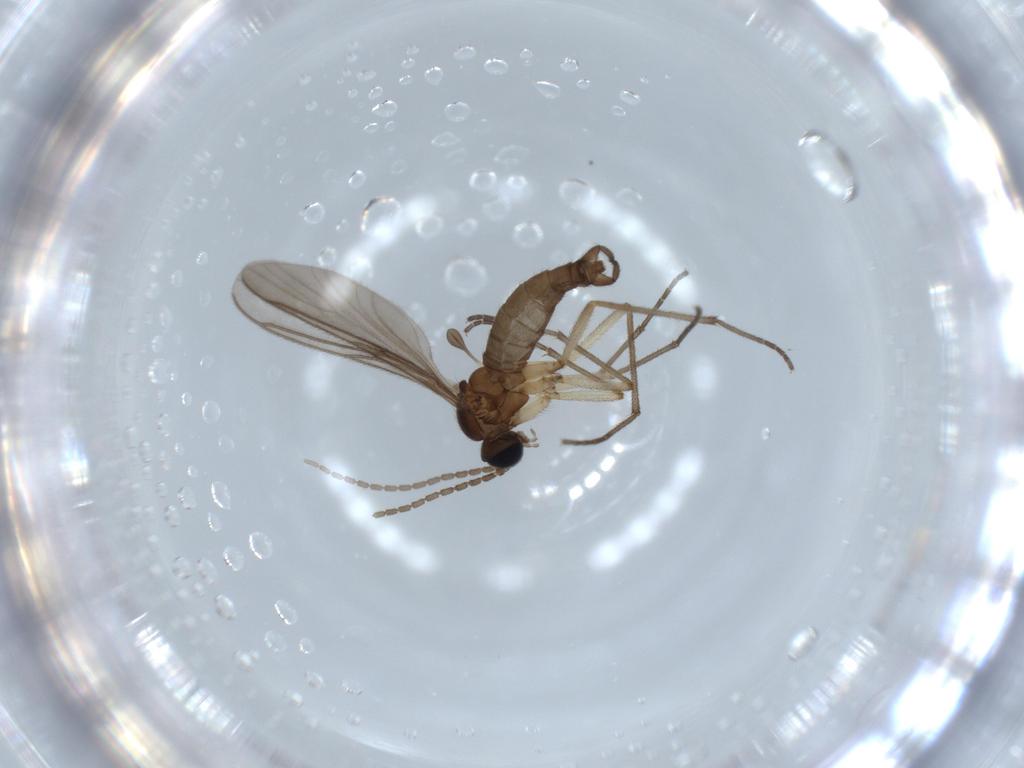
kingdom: Animalia
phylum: Arthropoda
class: Insecta
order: Diptera
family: Sciaridae
